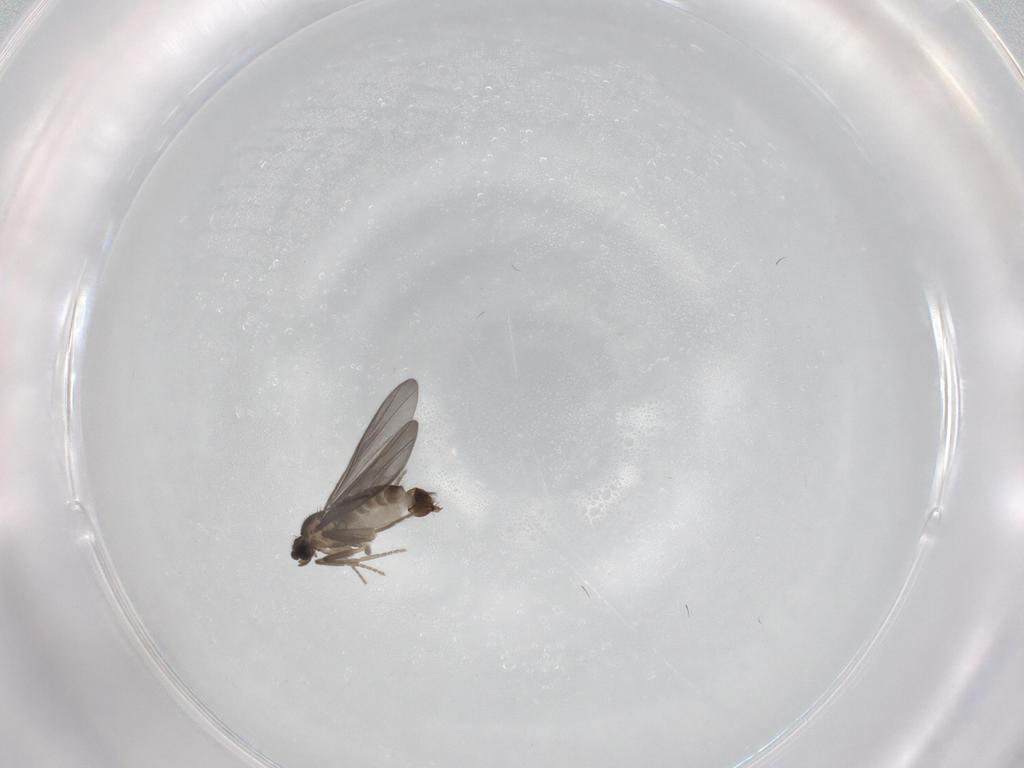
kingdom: Animalia
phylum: Arthropoda
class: Insecta
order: Diptera
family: Phoridae
